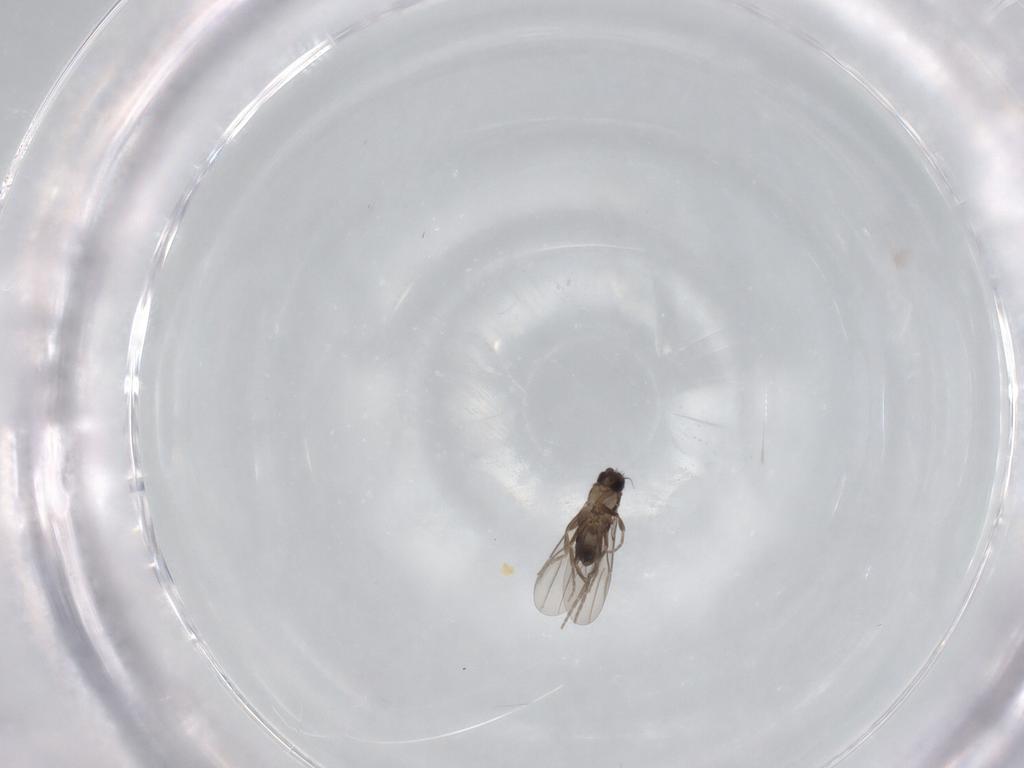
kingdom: Animalia
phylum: Arthropoda
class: Insecta
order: Diptera
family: Phoridae
